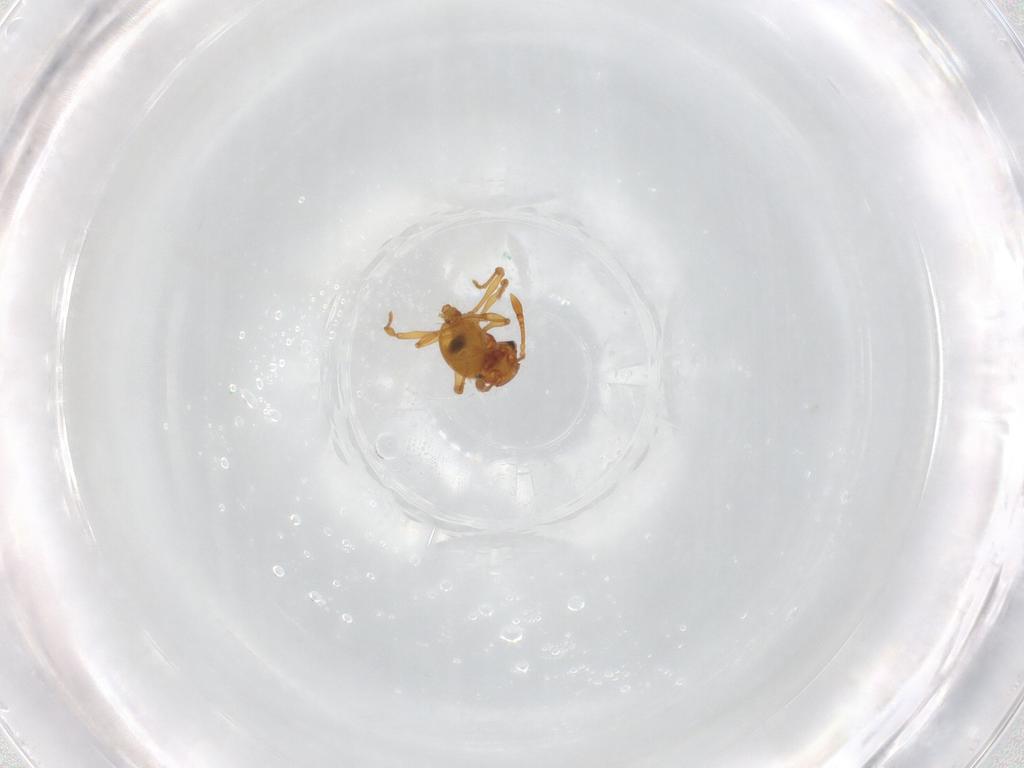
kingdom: Animalia
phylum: Arthropoda
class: Insecta
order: Hymenoptera
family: Formicidae
